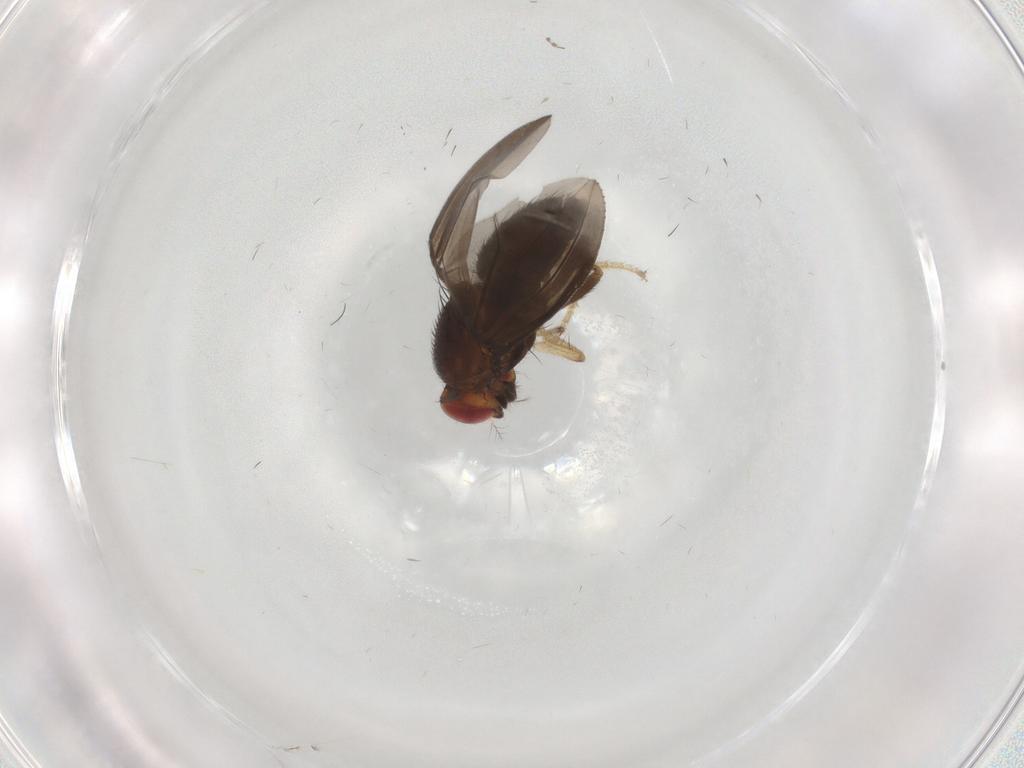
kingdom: Animalia
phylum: Arthropoda
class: Insecta
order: Diptera
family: Drosophilidae
